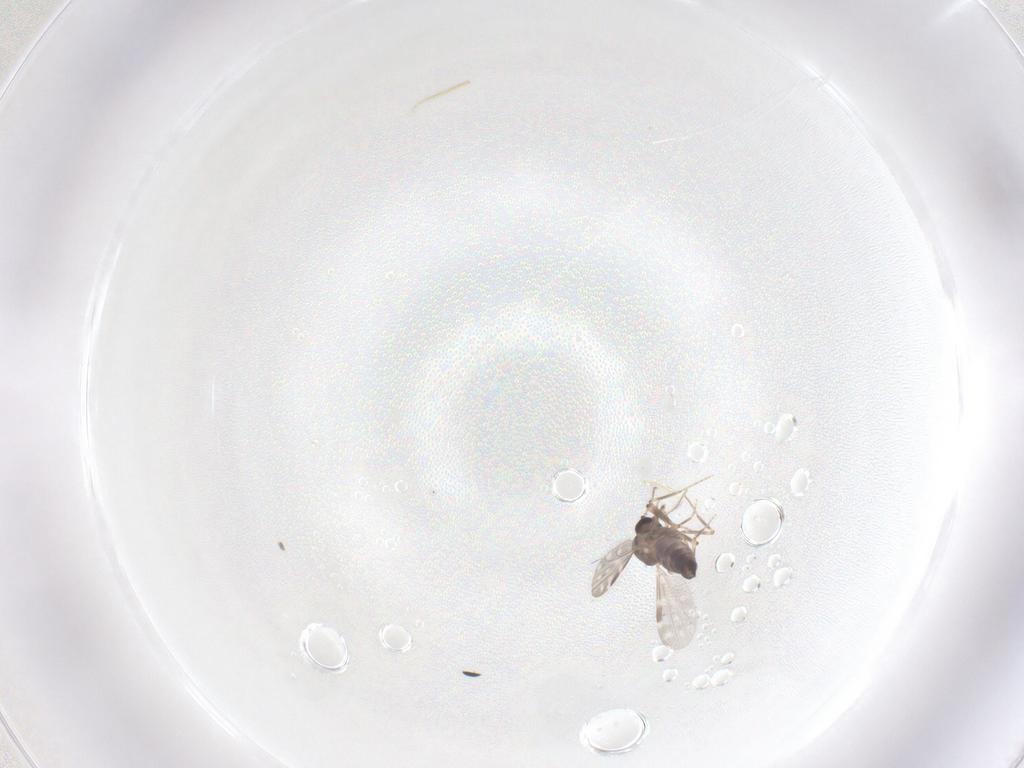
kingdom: Animalia
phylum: Arthropoda
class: Insecta
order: Diptera
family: Ceratopogonidae
